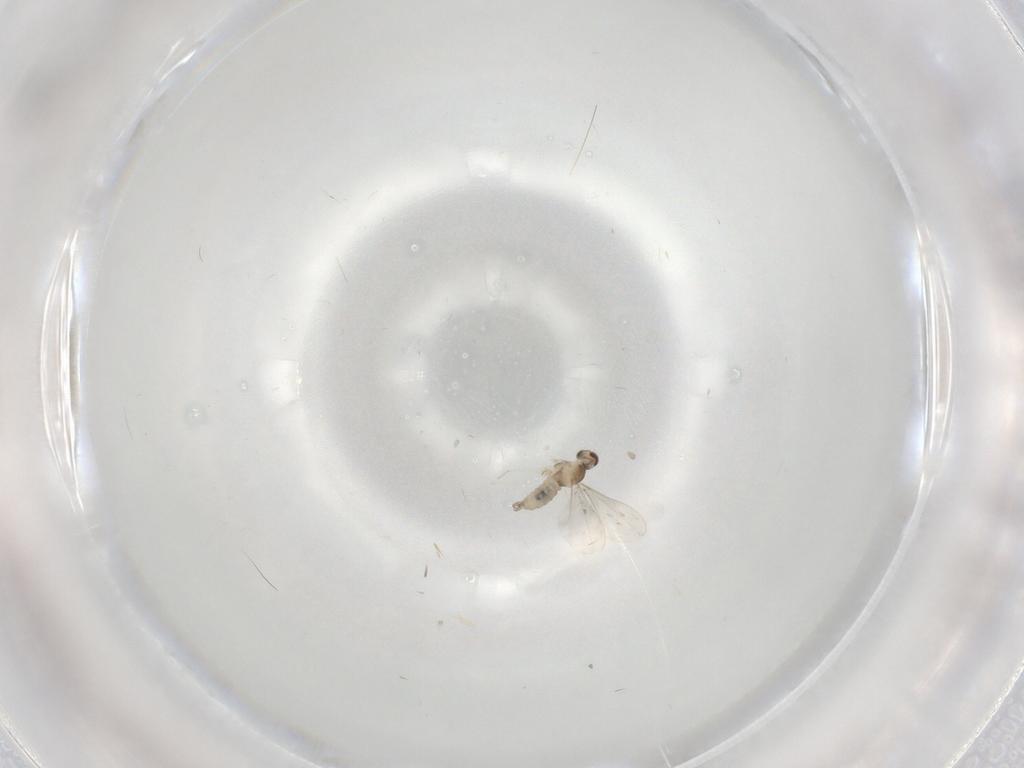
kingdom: Animalia
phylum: Arthropoda
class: Insecta
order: Diptera
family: Cecidomyiidae
